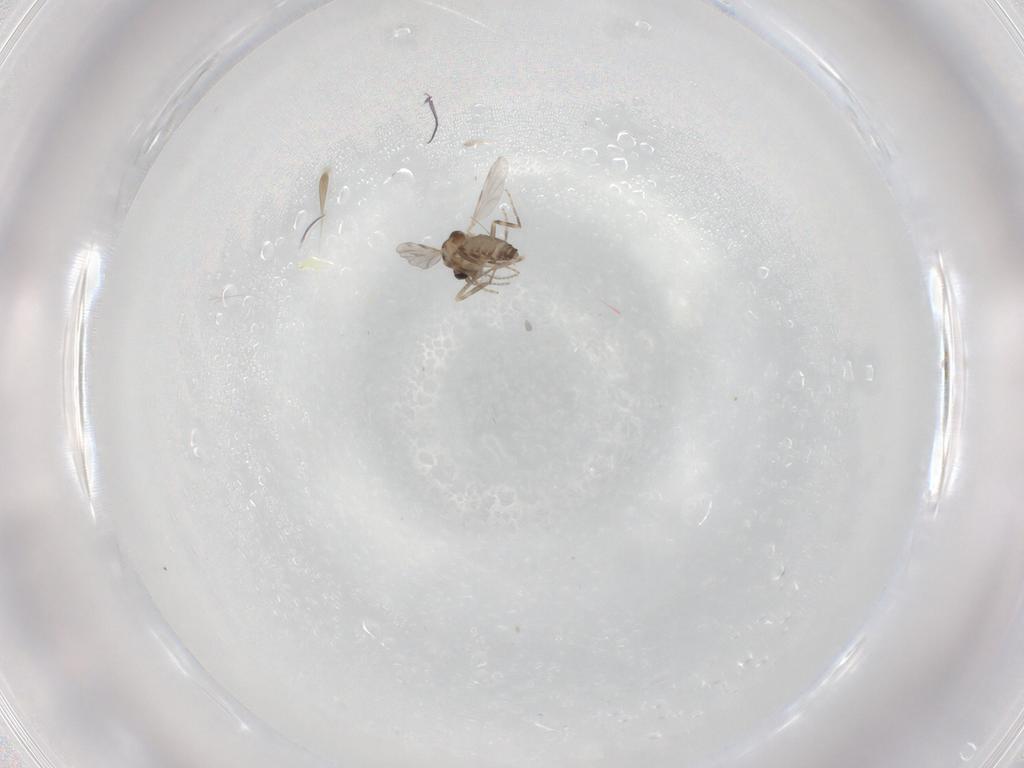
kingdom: Animalia
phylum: Arthropoda
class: Insecta
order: Diptera
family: Ceratopogonidae
